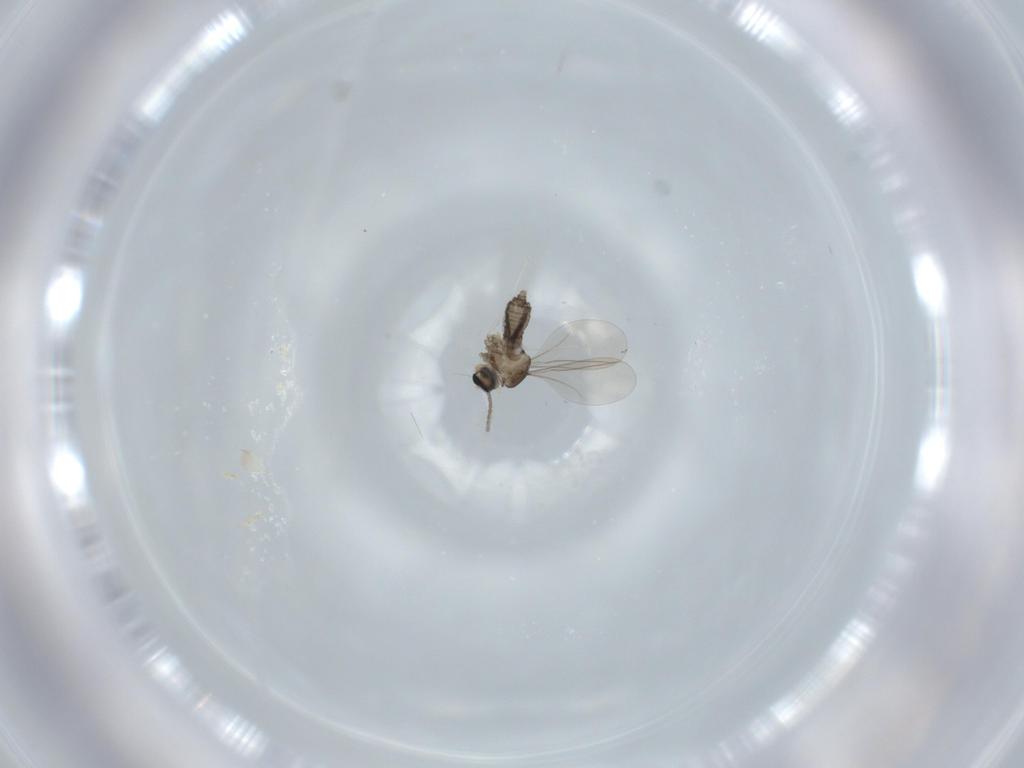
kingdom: Animalia
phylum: Arthropoda
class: Insecta
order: Diptera
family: Cecidomyiidae
